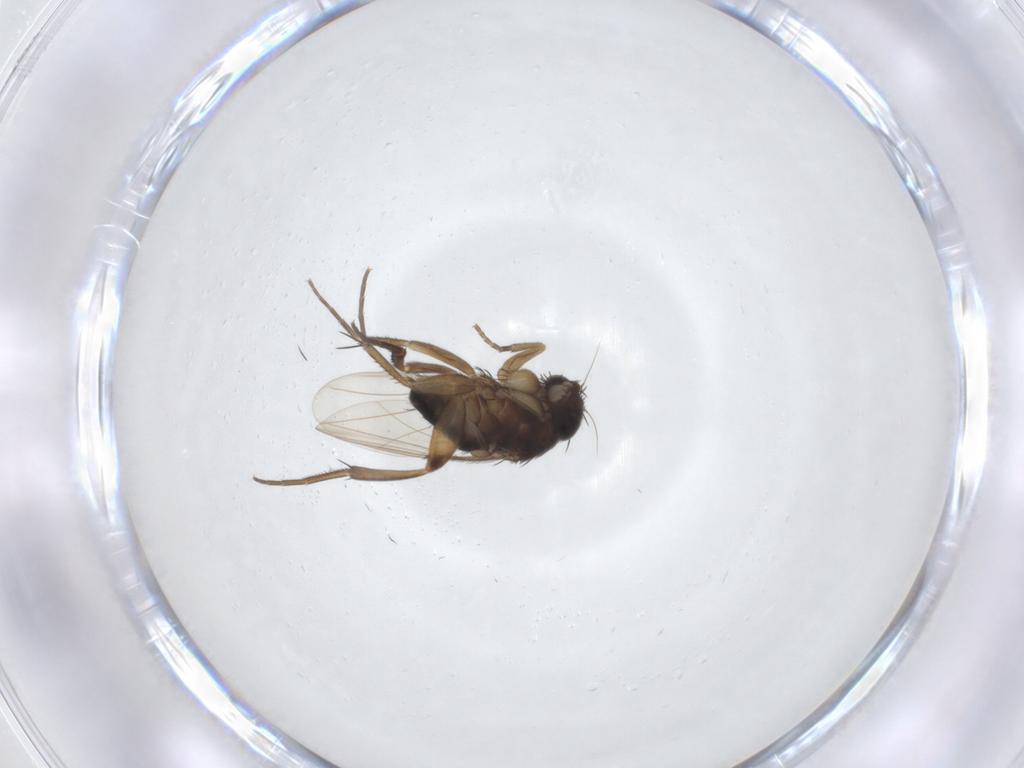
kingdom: Animalia
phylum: Arthropoda
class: Insecta
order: Diptera
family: Phoridae
